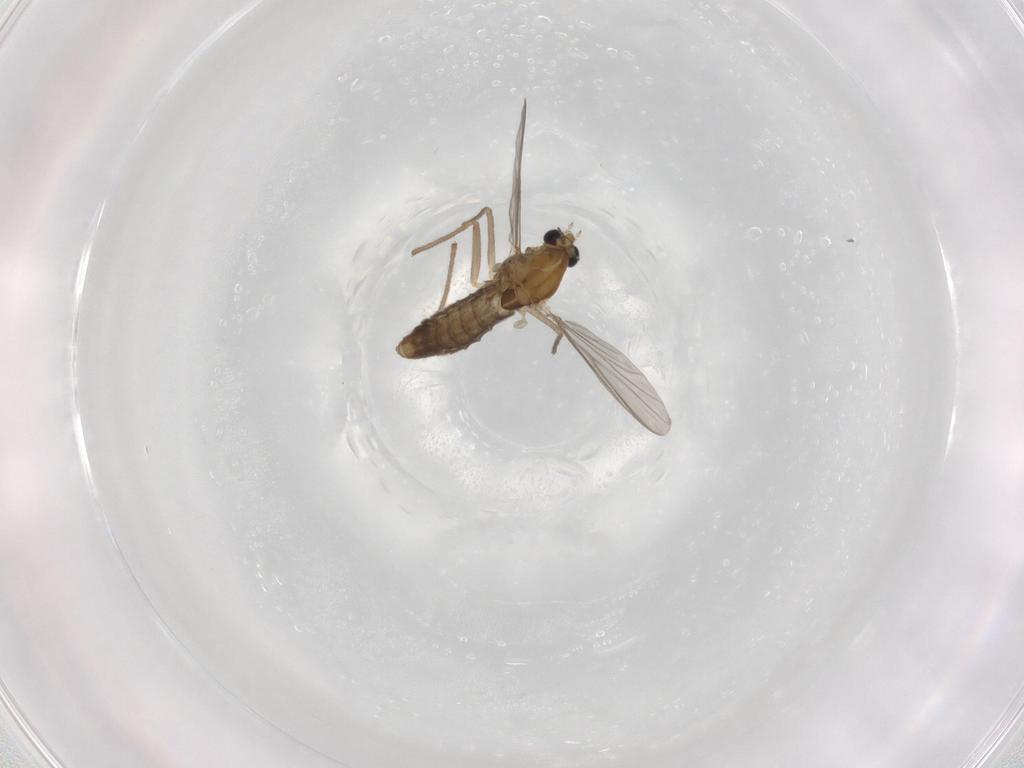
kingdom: Animalia
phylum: Arthropoda
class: Insecta
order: Diptera
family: Chironomidae
